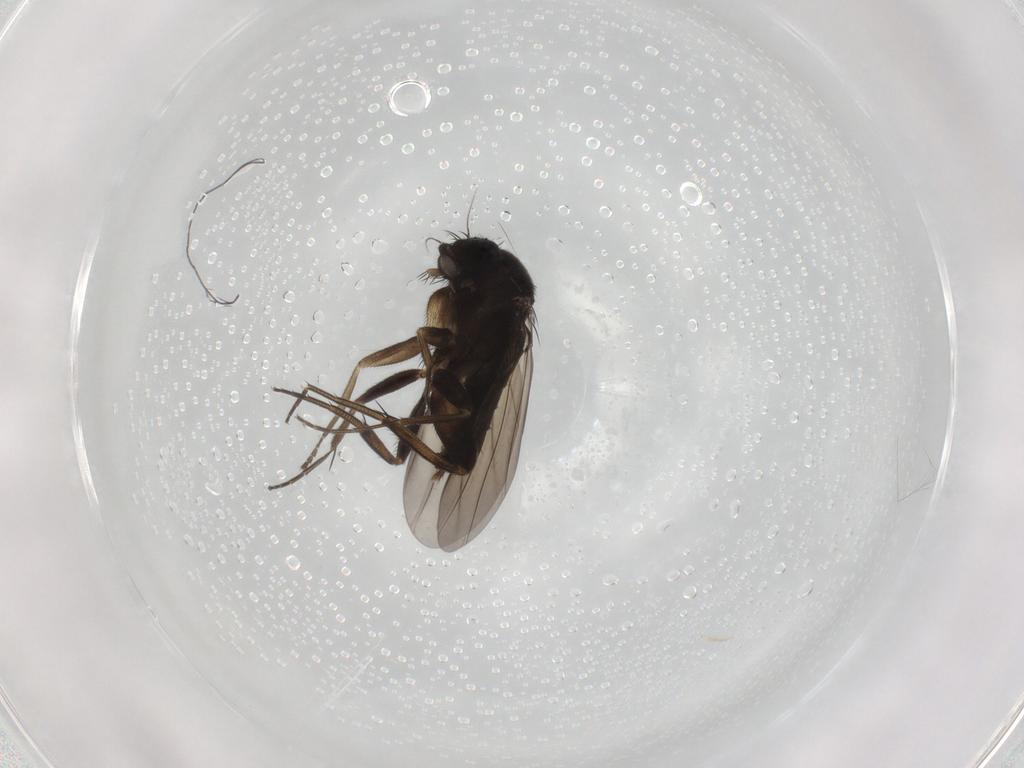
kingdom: Animalia
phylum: Arthropoda
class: Insecta
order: Diptera
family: Phoridae
